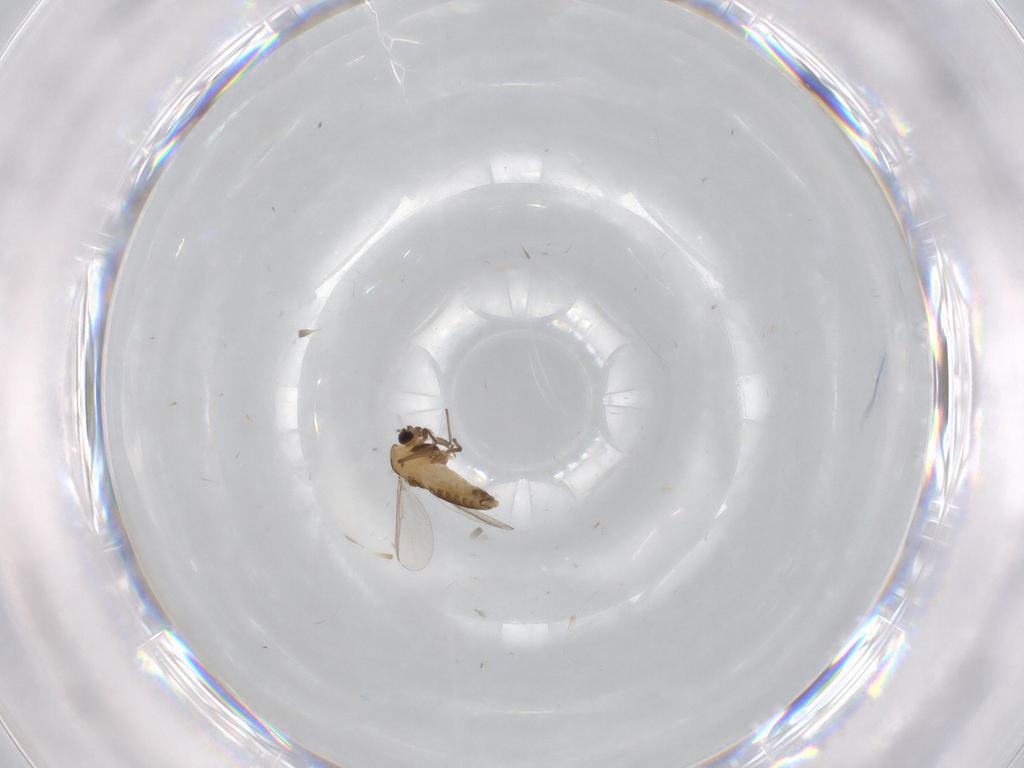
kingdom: Animalia
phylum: Arthropoda
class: Insecta
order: Diptera
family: Chironomidae
